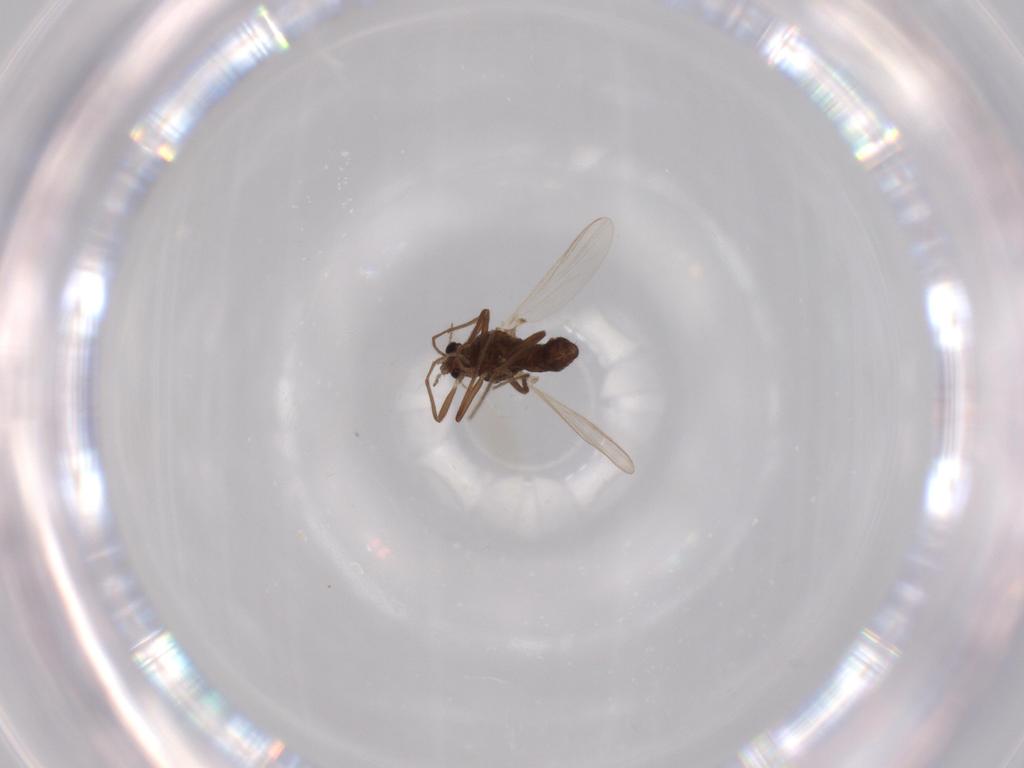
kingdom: Animalia
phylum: Arthropoda
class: Insecta
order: Diptera
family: Chironomidae
